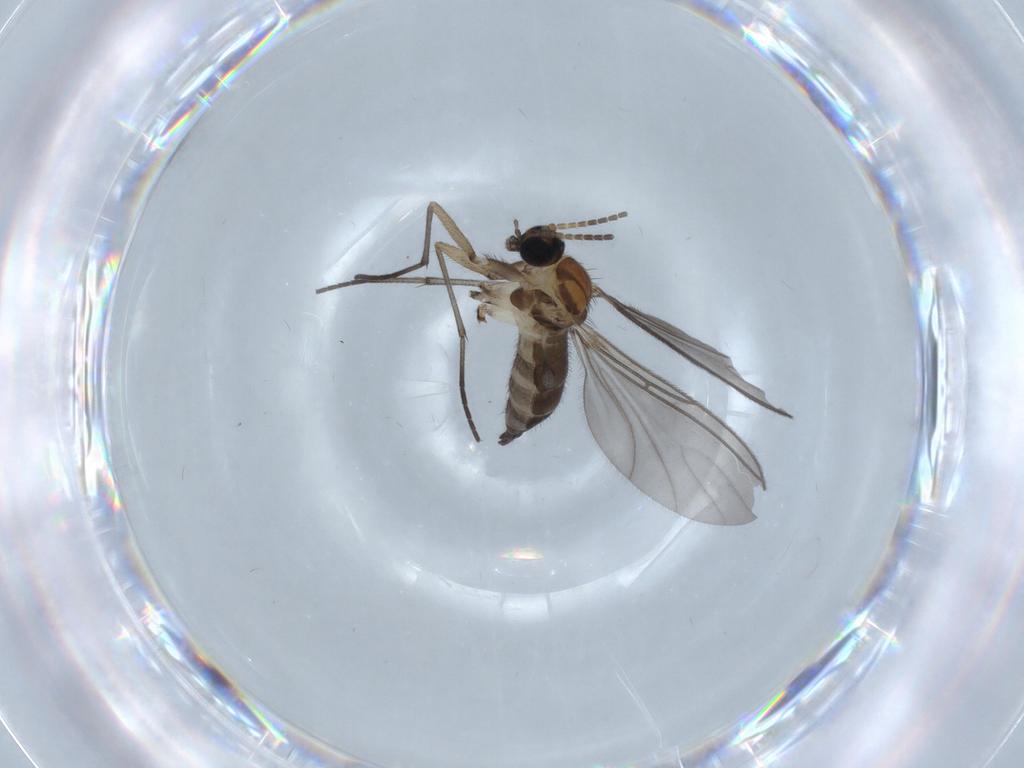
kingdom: Animalia
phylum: Arthropoda
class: Insecta
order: Diptera
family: Sciaridae
